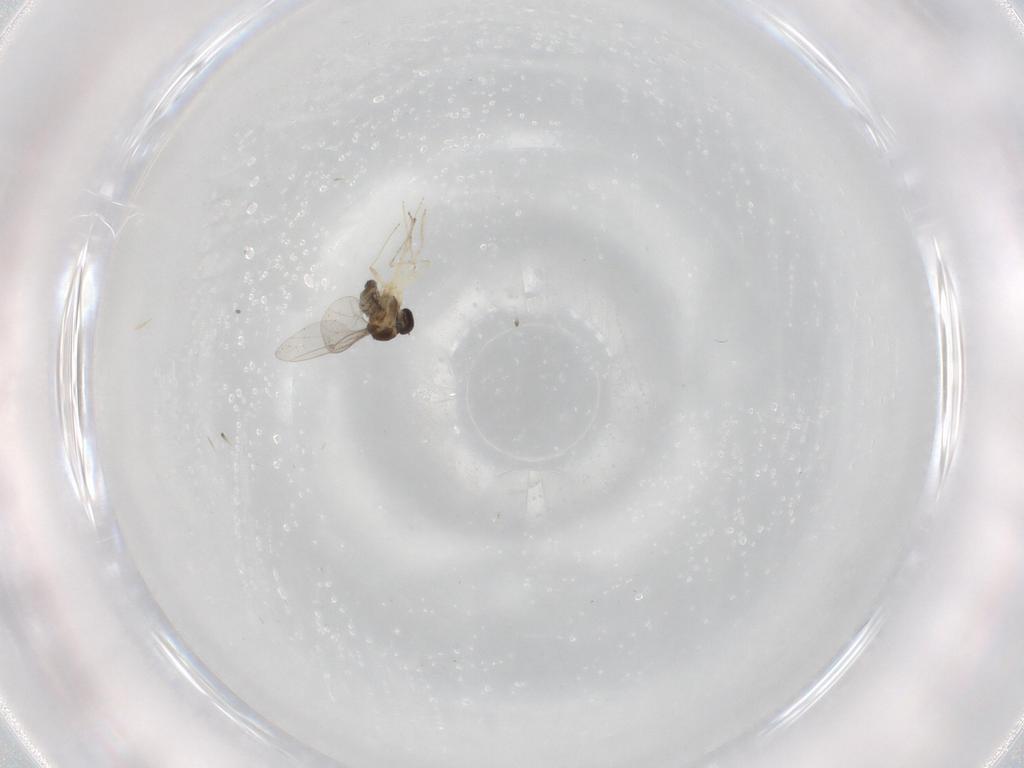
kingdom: Animalia
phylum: Arthropoda
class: Insecta
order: Diptera
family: Cecidomyiidae
